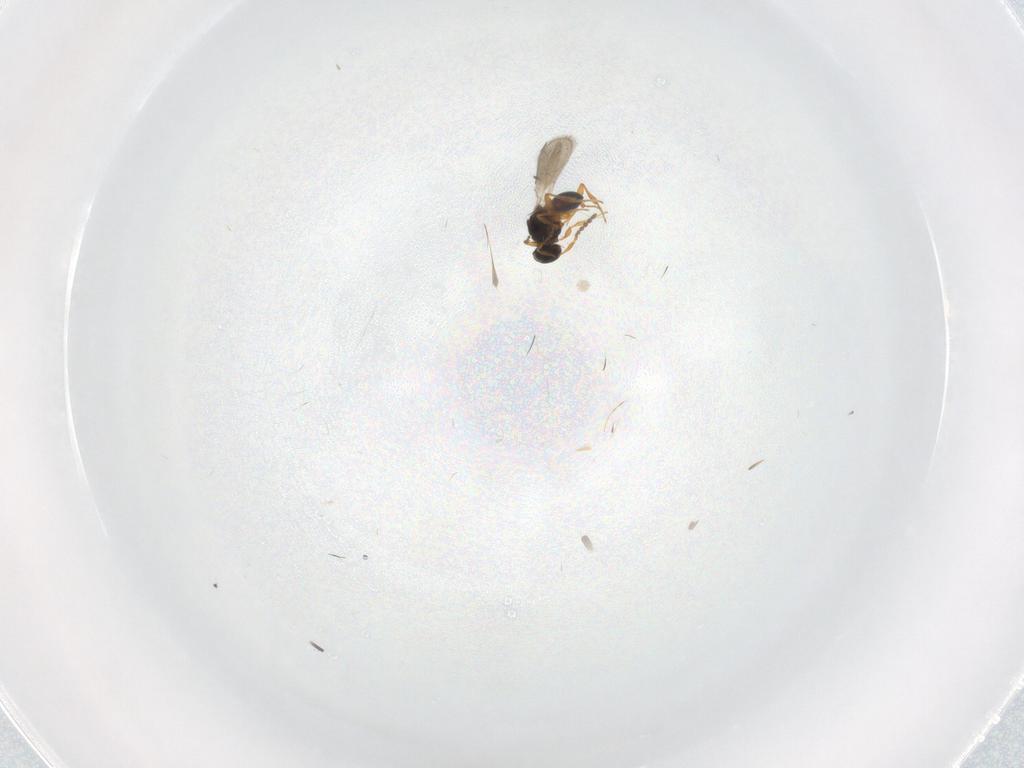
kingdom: Animalia
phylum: Arthropoda
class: Insecta
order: Hymenoptera
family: Platygastridae
